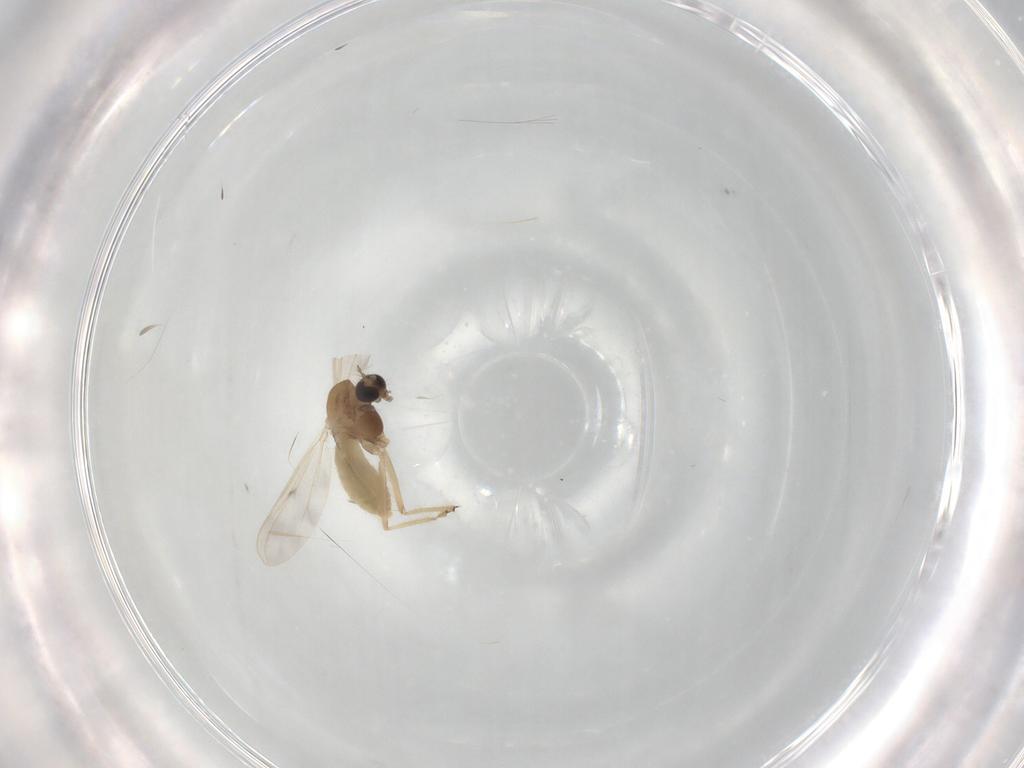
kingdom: Animalia
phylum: Arthropoda
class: Insecta
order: Diptera
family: Sciaridae
